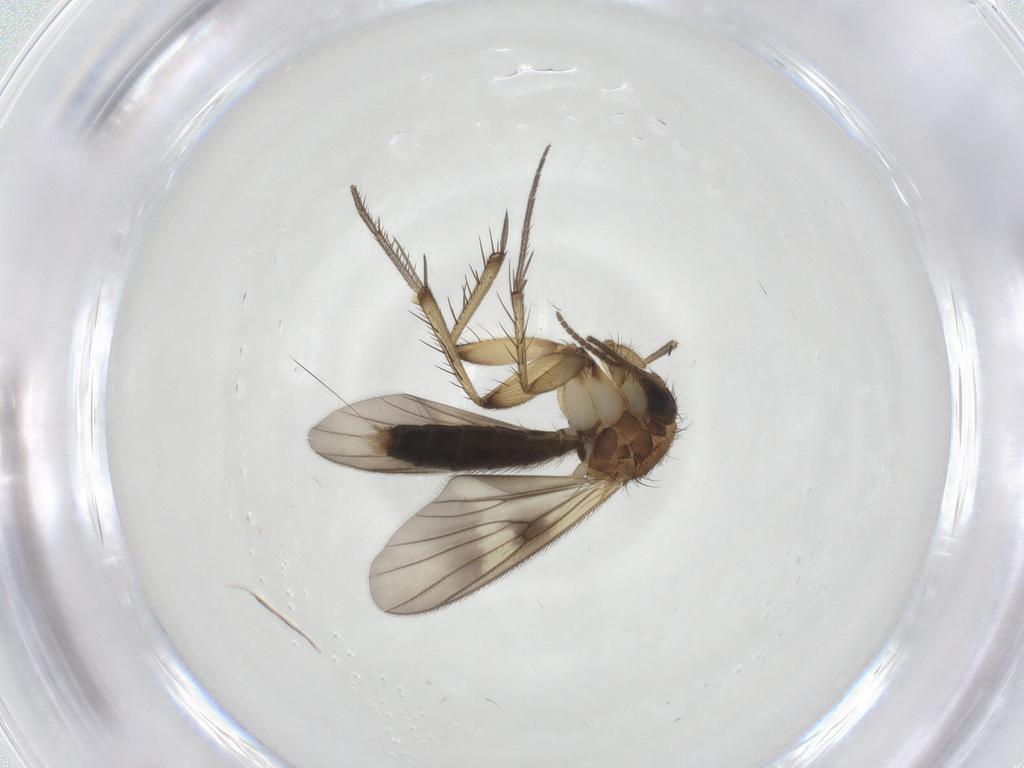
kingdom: Animalia
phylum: Arthropoda
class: Insecta
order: Diptera
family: Mycetophilidae
